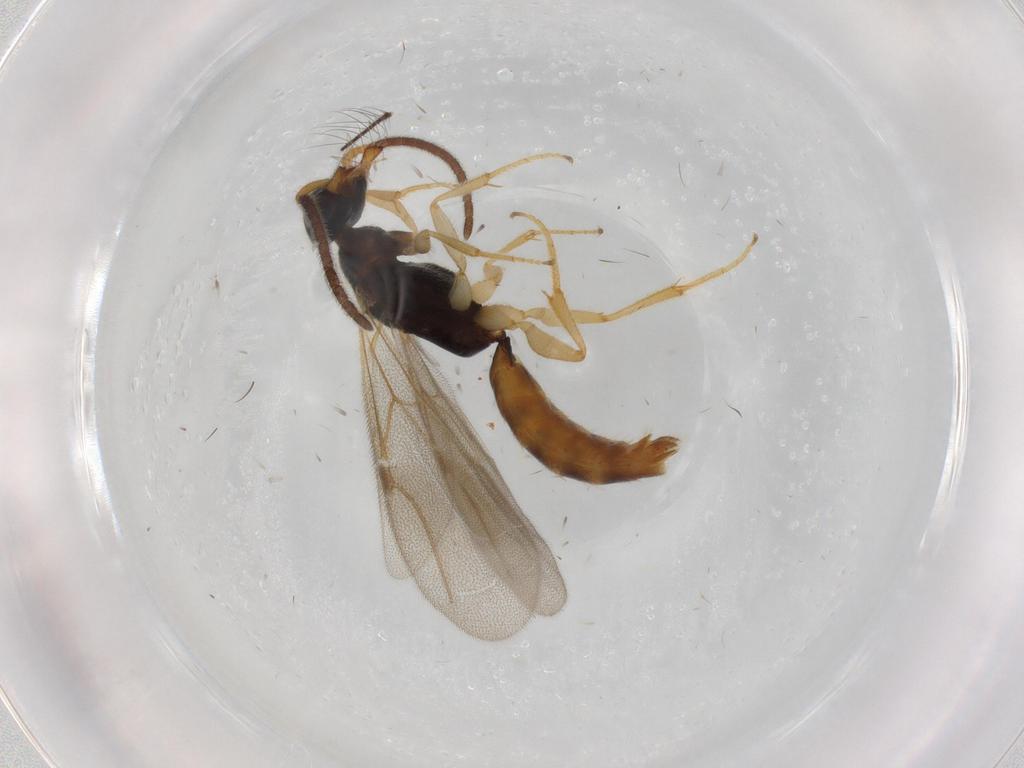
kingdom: Animalia
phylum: Arthropoda
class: Insecta
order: Hymenoptera
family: Bethylidae
